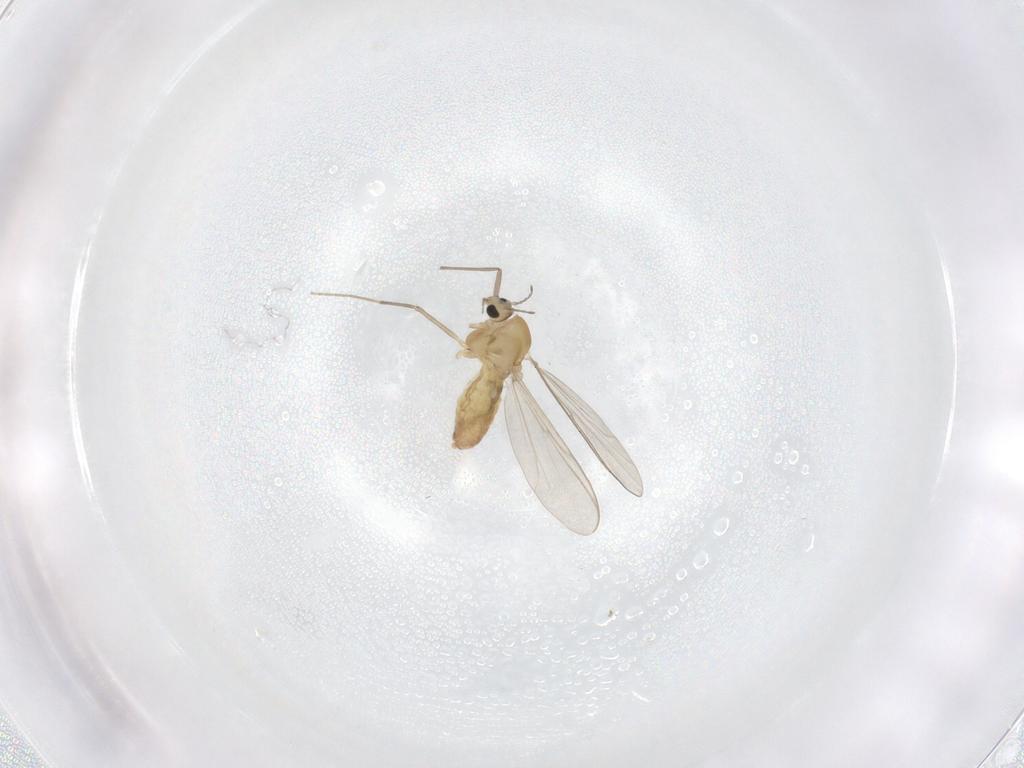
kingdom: Animalia
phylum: Arthropoda
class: Insecta
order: Diptera
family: Chironomidae
